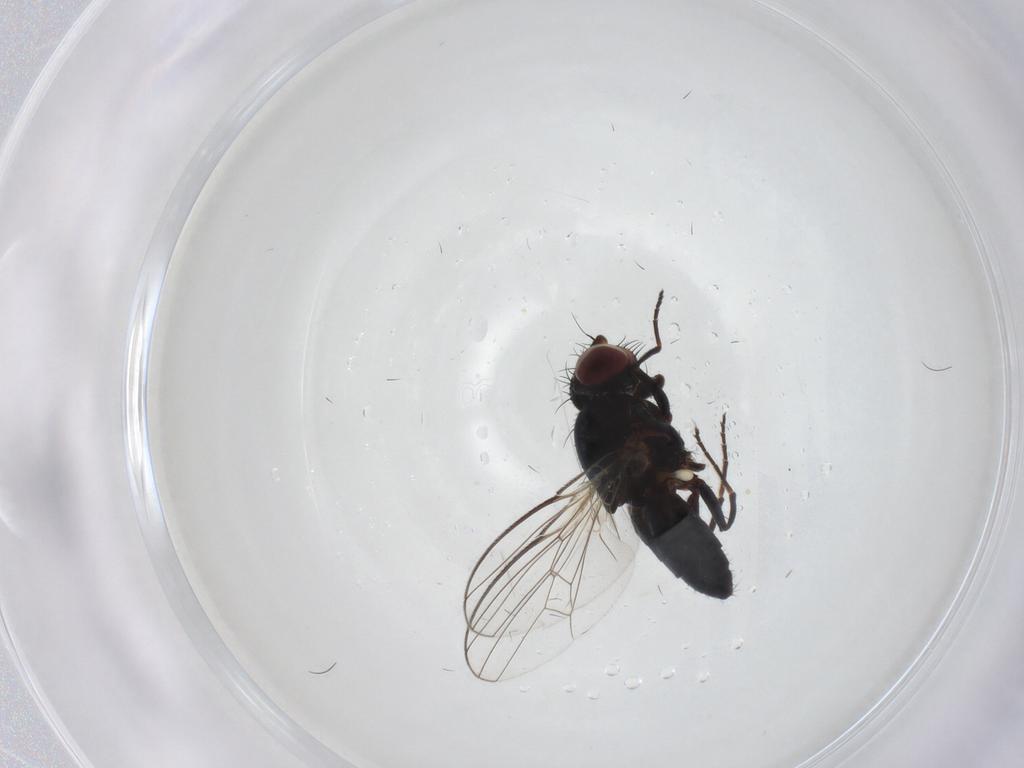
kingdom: Animalia
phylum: Arthropoda
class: Insecta
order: Diptera
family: Carnidae
